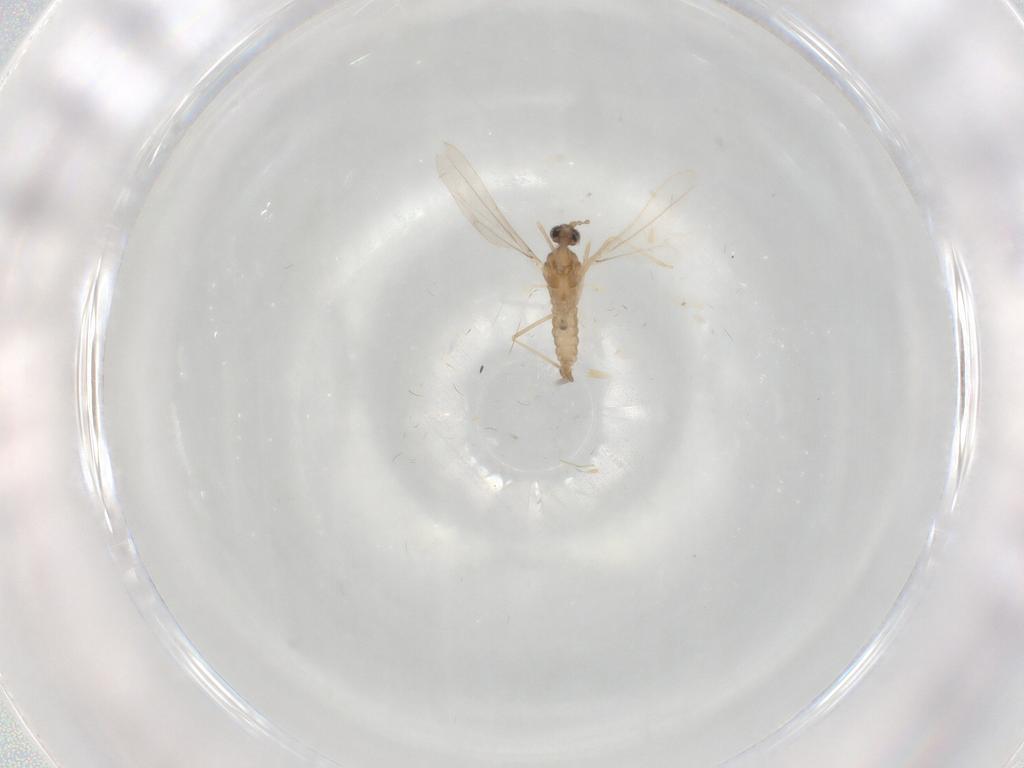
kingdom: Animalia
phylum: Arthropoda
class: Insecta
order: Diptera
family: Cecidomyiidae
